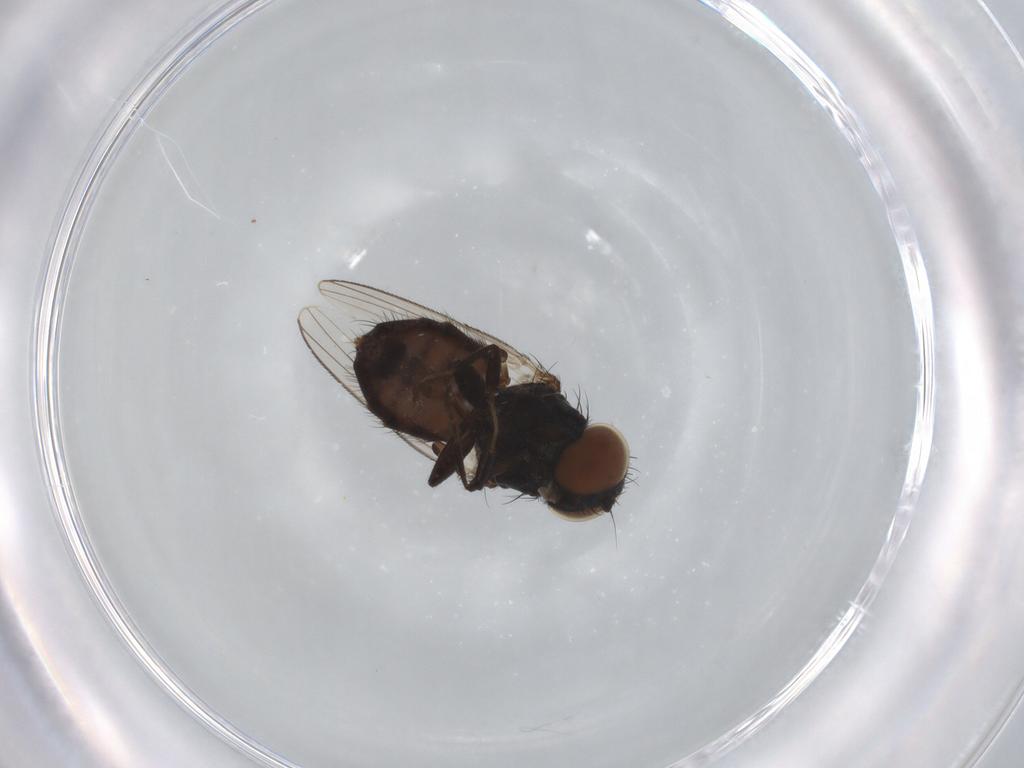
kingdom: Animalia
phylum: Arthropoda
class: Insecta
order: Diptera
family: Milichiidae
